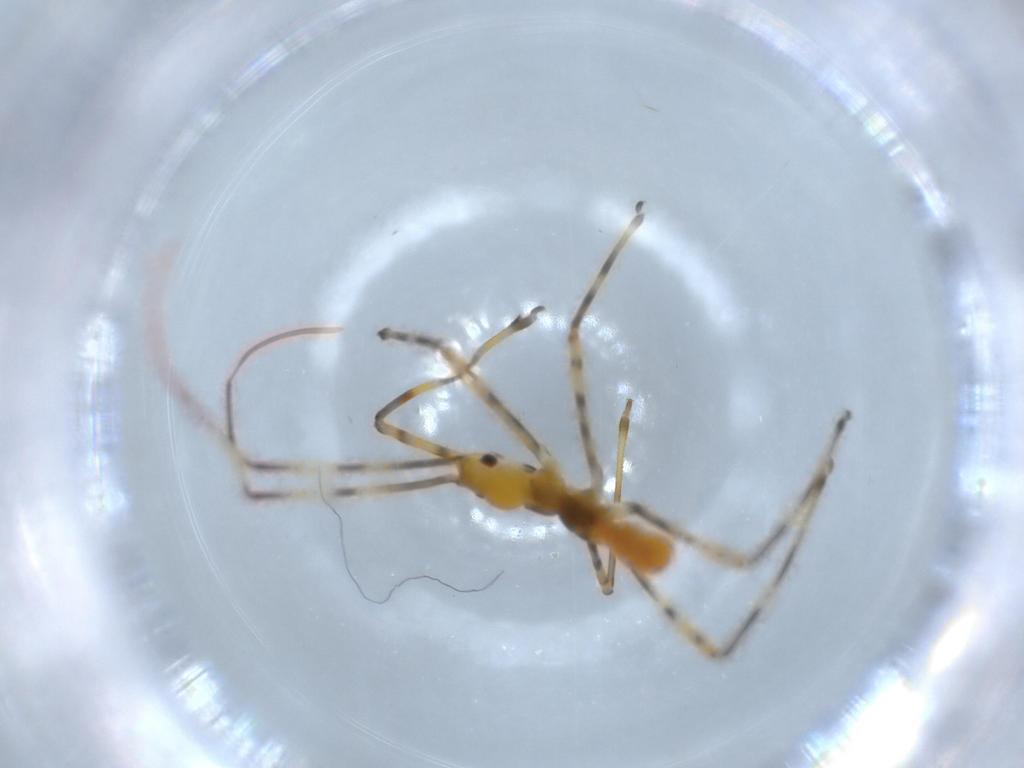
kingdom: Animalia
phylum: Arthropoda
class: Insecta
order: Hemiptera
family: Reduviidae
